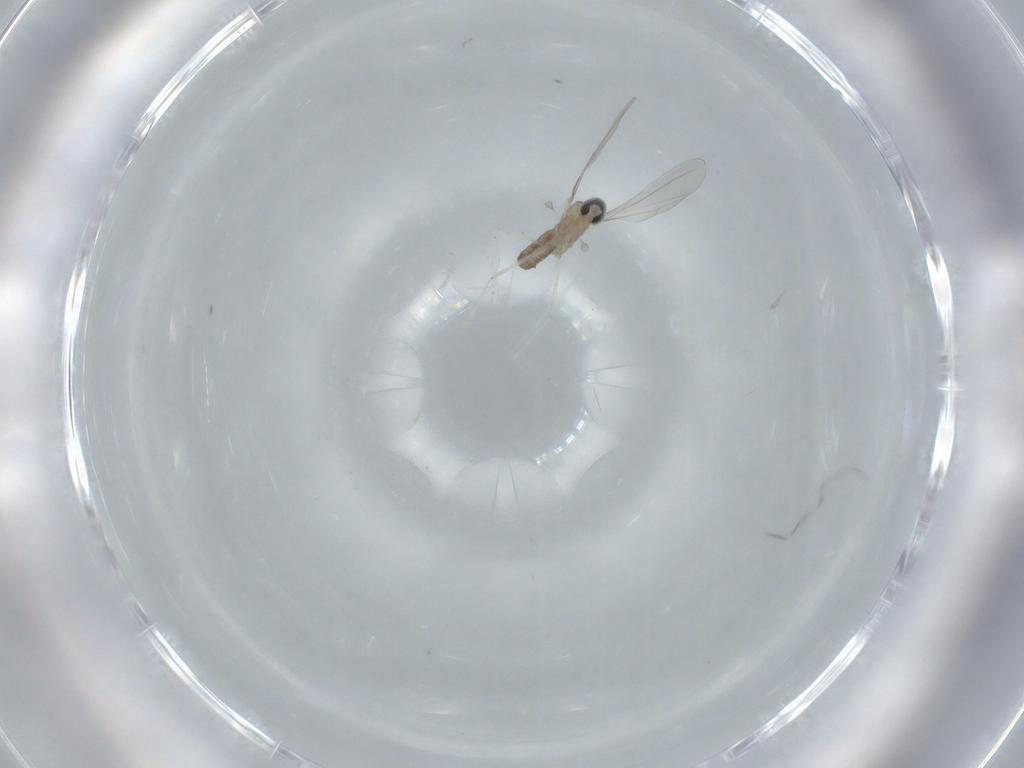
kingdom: Animalia
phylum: Arthropoda
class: Insecta
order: Diptera
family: Cecidomyiidae
